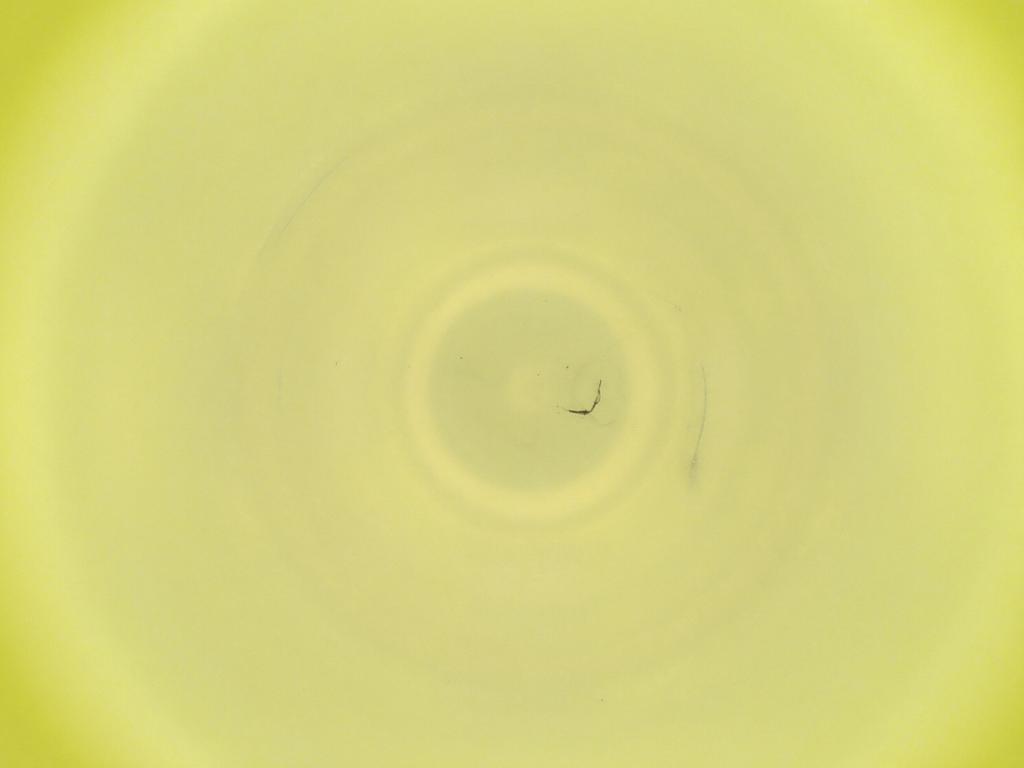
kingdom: Animalia
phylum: Arthropoda
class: Insecta
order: Diptera
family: Cecidomyiidae
